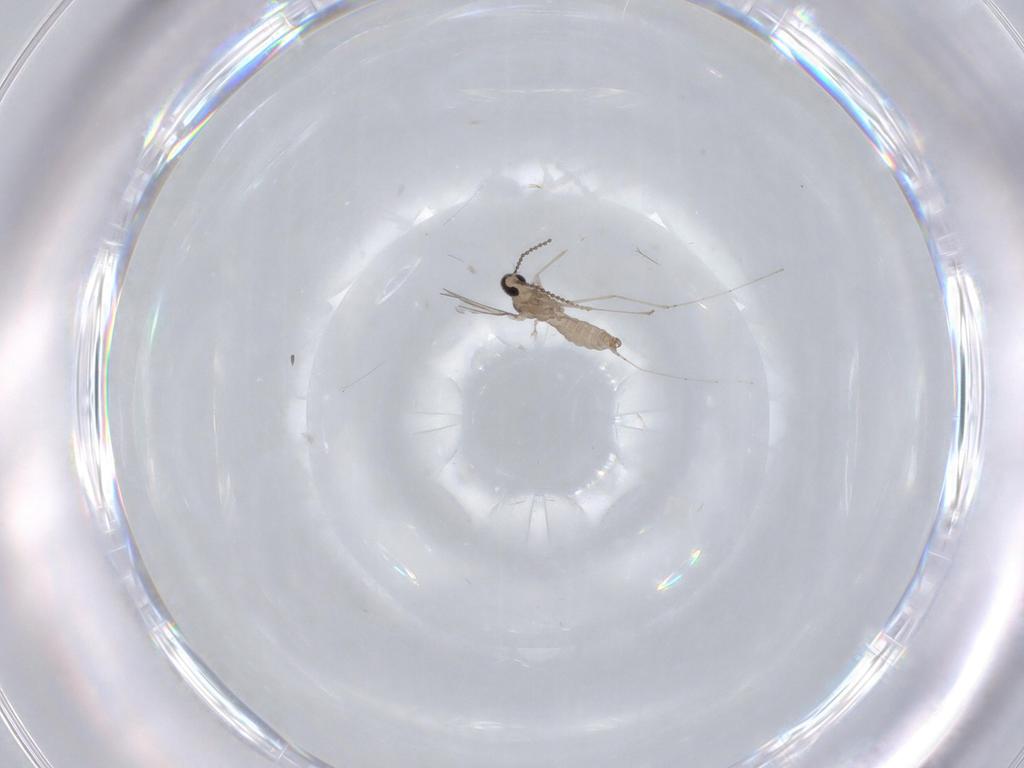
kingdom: Animalia
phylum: Arthropoda
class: Insecta
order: Diptera
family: Cecidomyiidae
